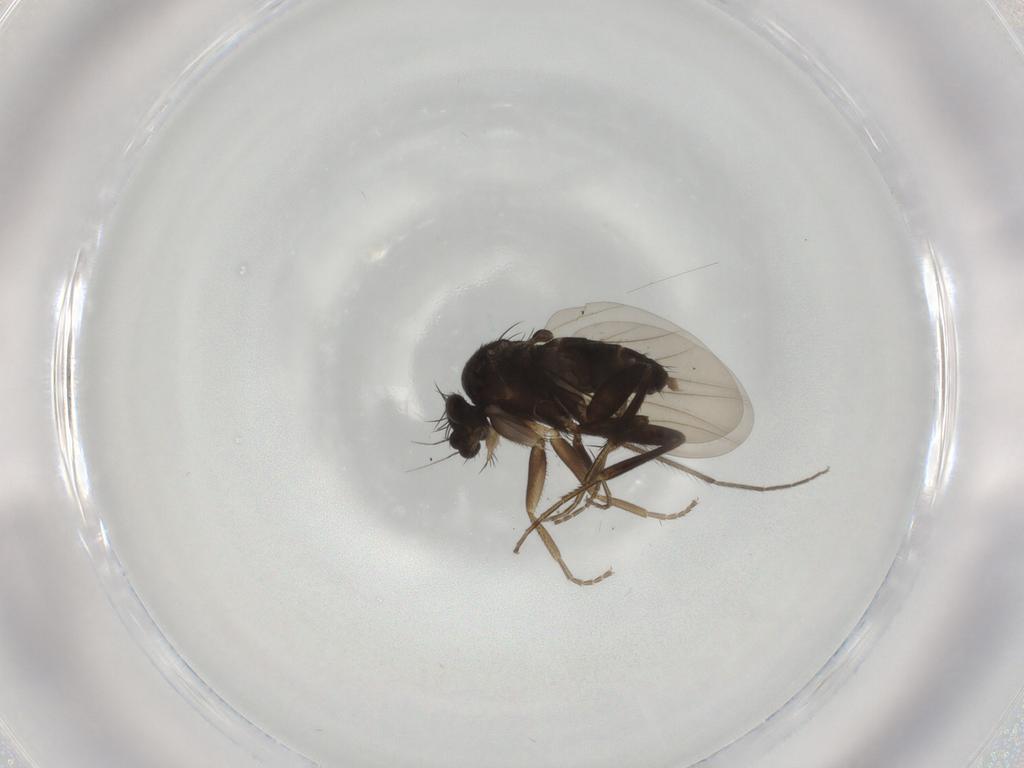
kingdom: Animalia
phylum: Arthropoda
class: Insecta
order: Diptera
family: Phoridae
